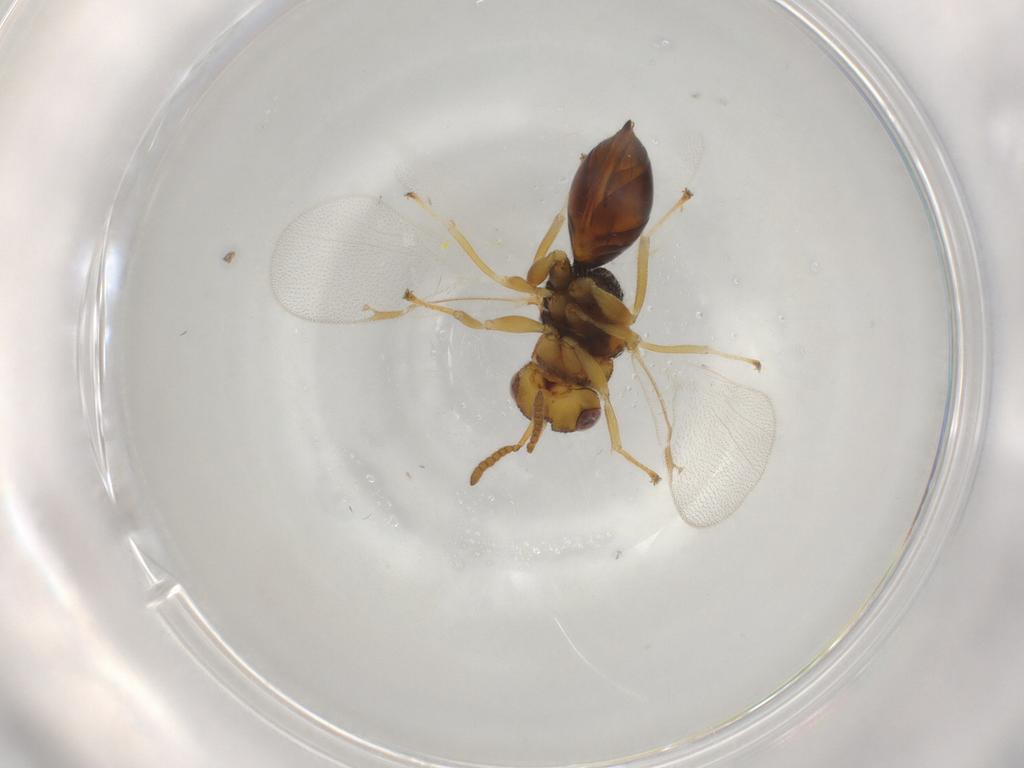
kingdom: Animalia
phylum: Arthropoda
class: Insecta
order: Hymenoptera
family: Eurytomidae
